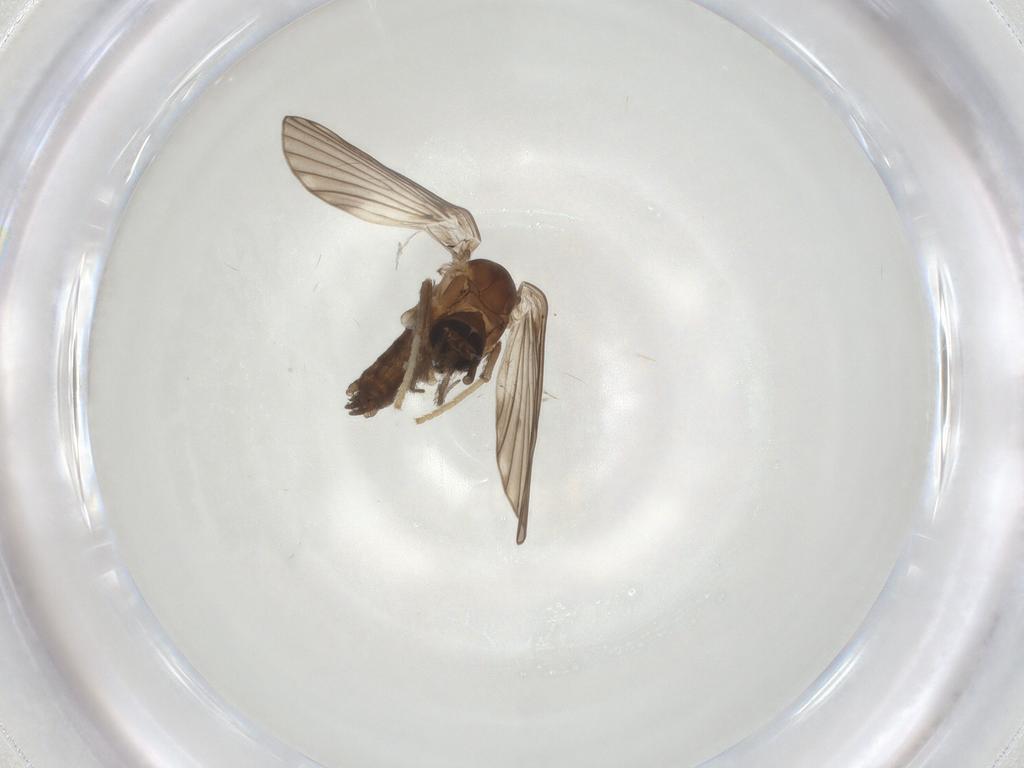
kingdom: Animalia
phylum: Arthropoda
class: Insecta
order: Diptera
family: Psychodidae
